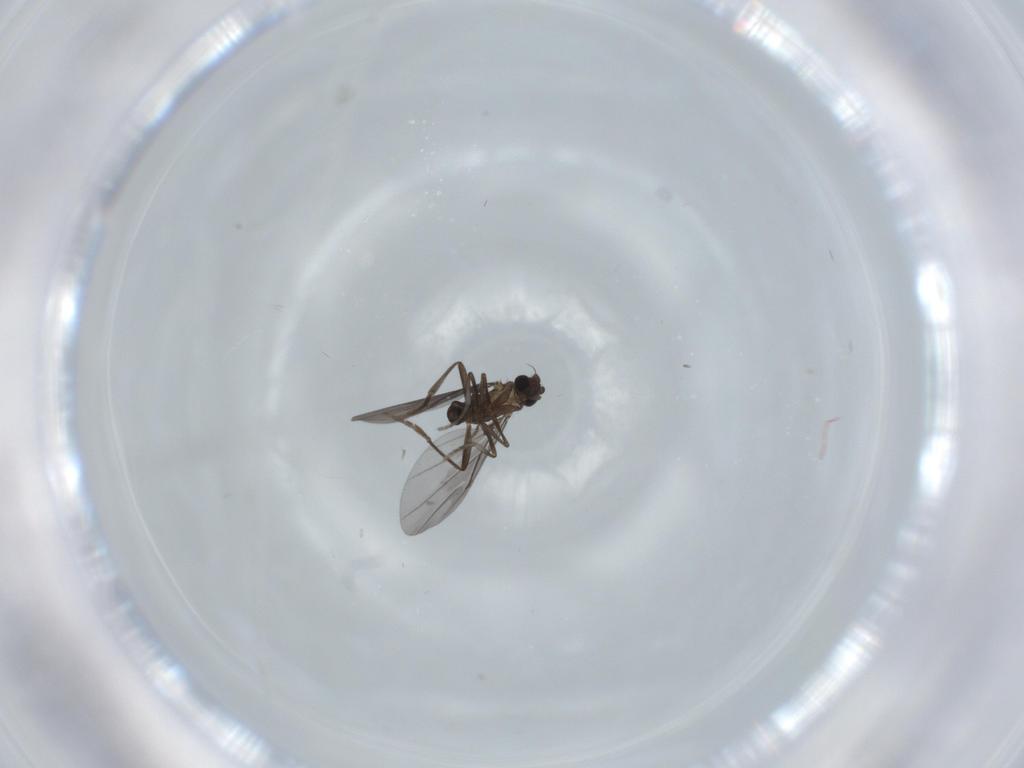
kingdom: Animalia
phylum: Arthropoda
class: Insecta
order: Diptera
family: Phoridae
